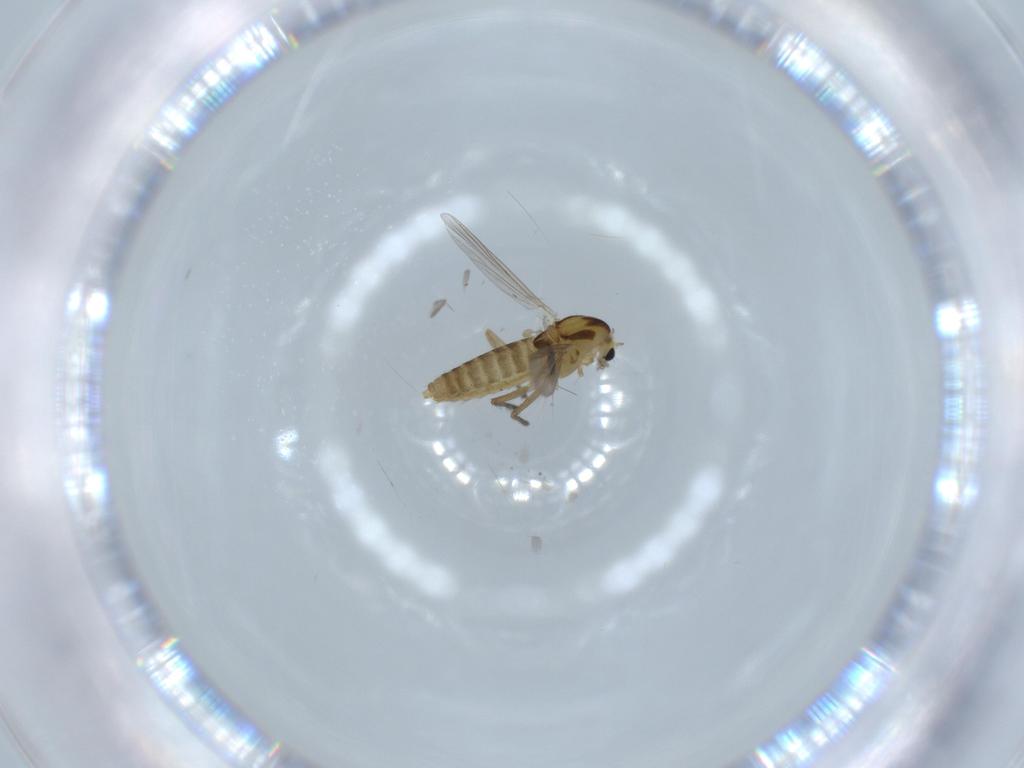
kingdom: Animalia
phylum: Arthropoda
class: Insecta
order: Diptera
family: Chironomidae
